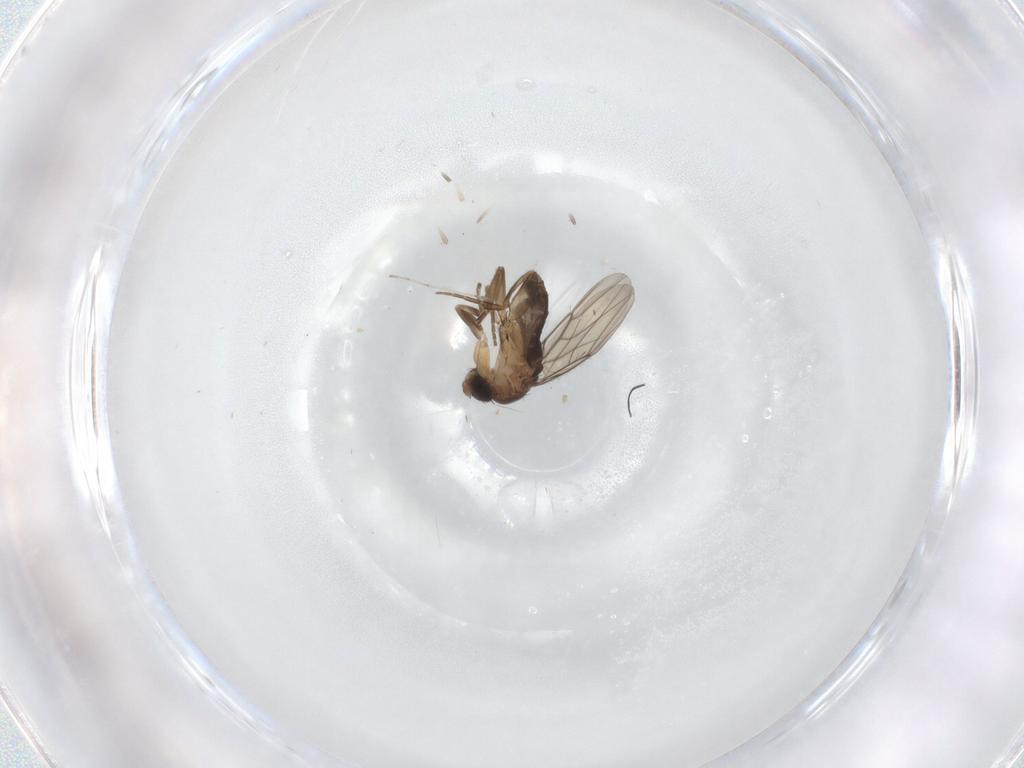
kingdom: Animalia
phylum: Arthropoda
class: Insecta
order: Diptera
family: Phoridae
